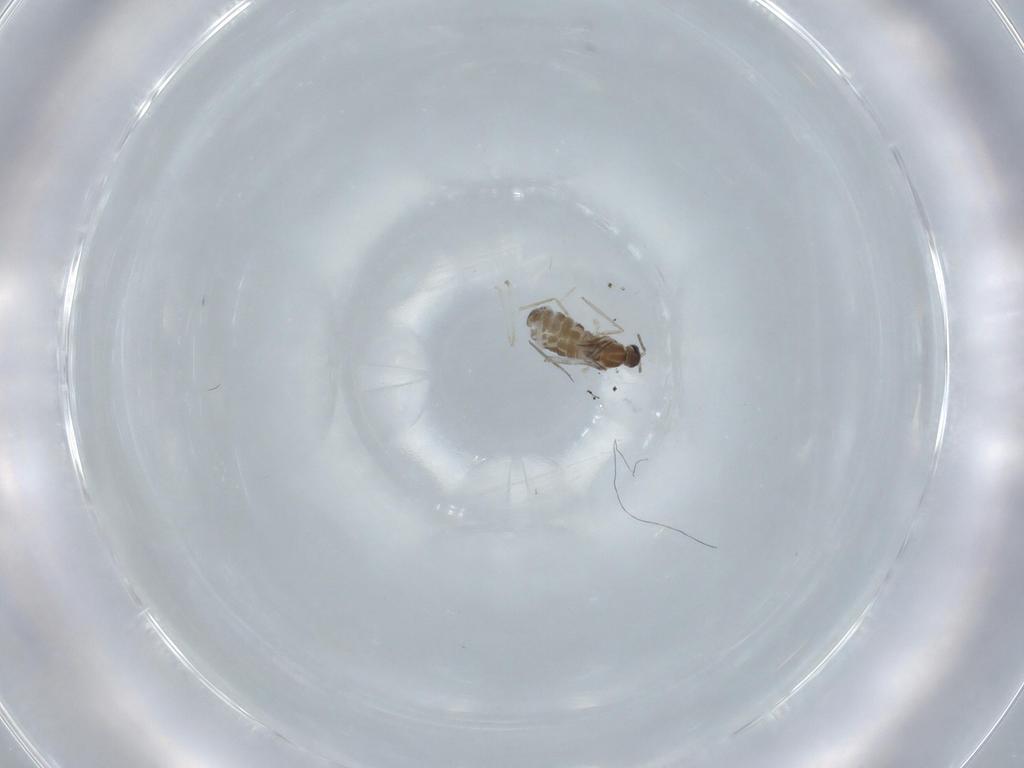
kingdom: Animalia
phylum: Arthropoda
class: Insecta
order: Diptera
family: Cecidomyiidae
